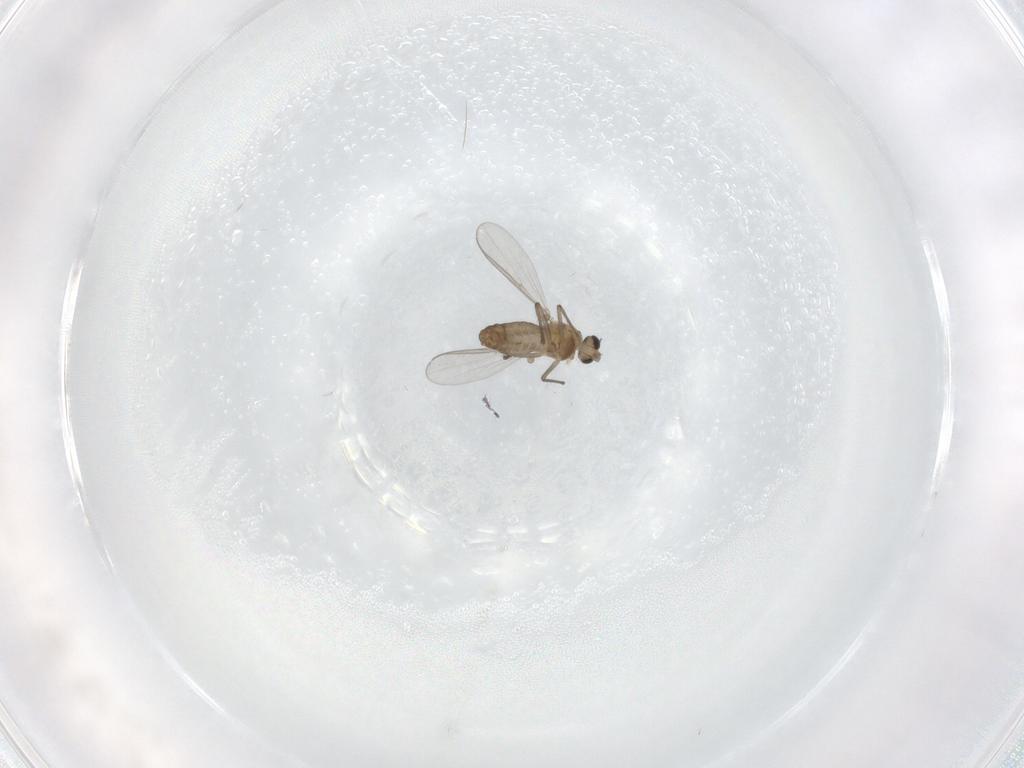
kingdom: Animalia
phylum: Arthropoda
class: Insecta
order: Diptera
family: Chironomidae
